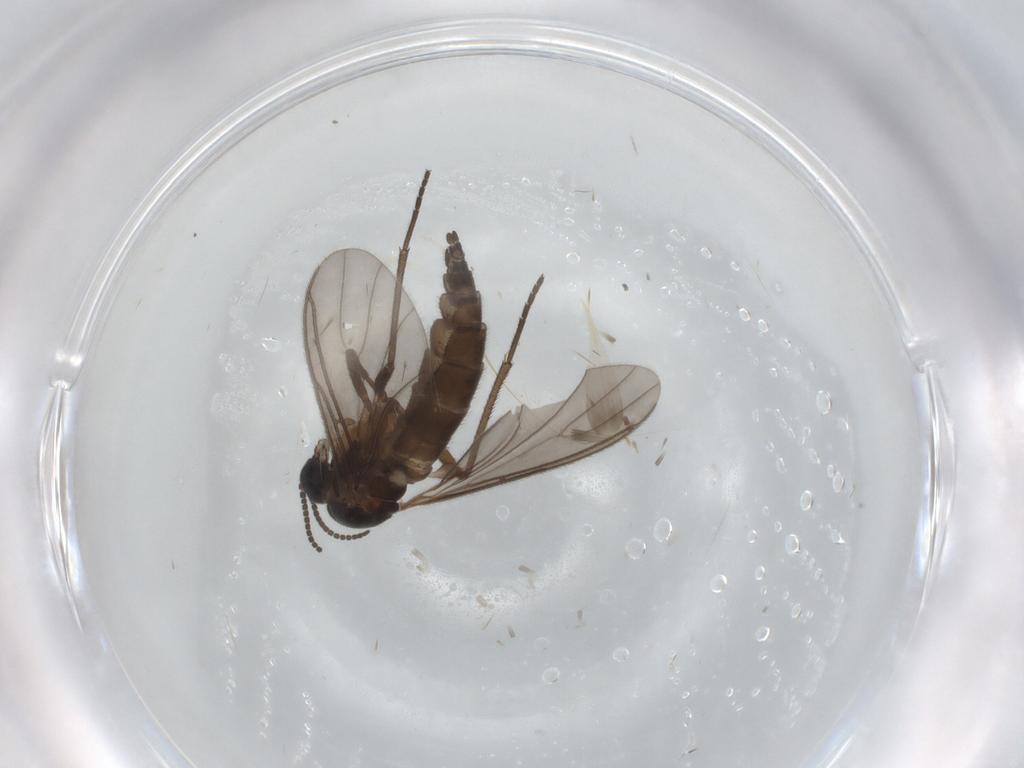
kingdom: Animalia
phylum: Arthropoda
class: Insecta
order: Diptera
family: Sciaridae
